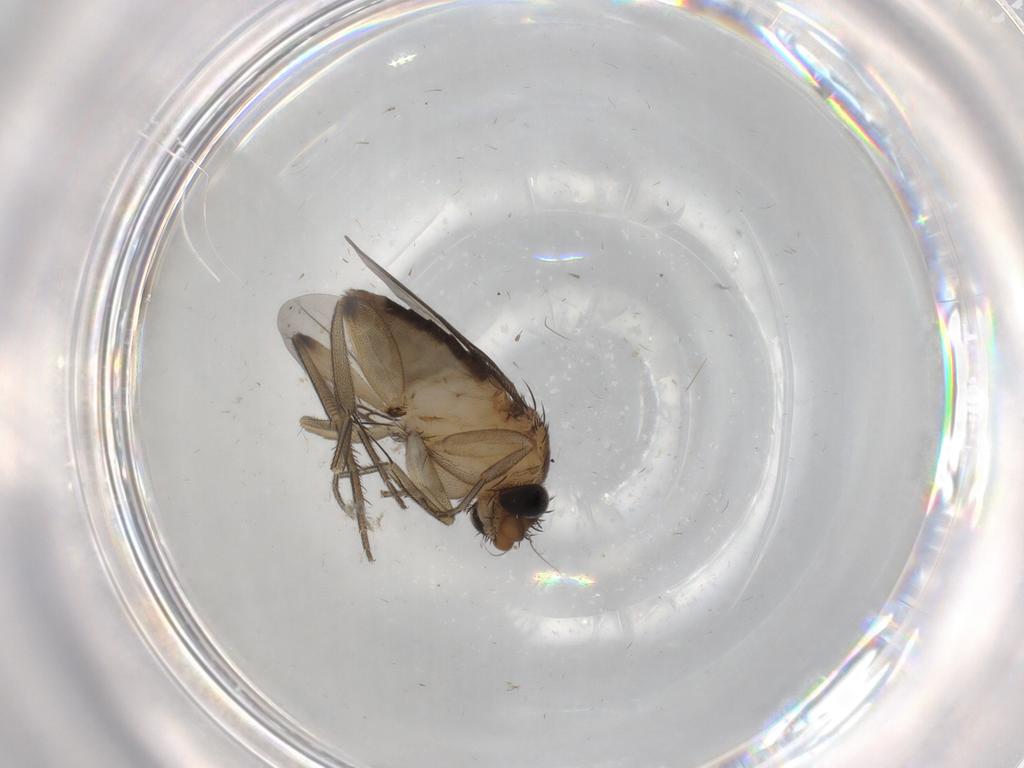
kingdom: Animalia
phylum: Arthropoda
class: Insecta
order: Diptera
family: Phoridae
